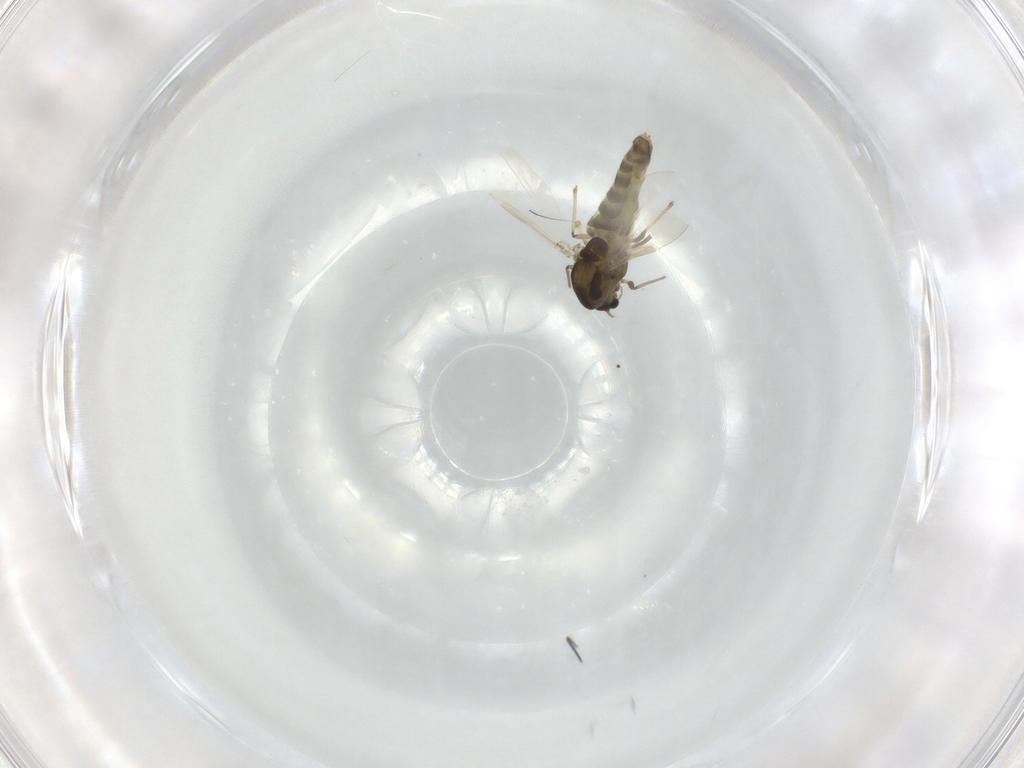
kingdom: Animalia
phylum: Arthropoda
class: Insecta
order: Diptera
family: Chironomidae
